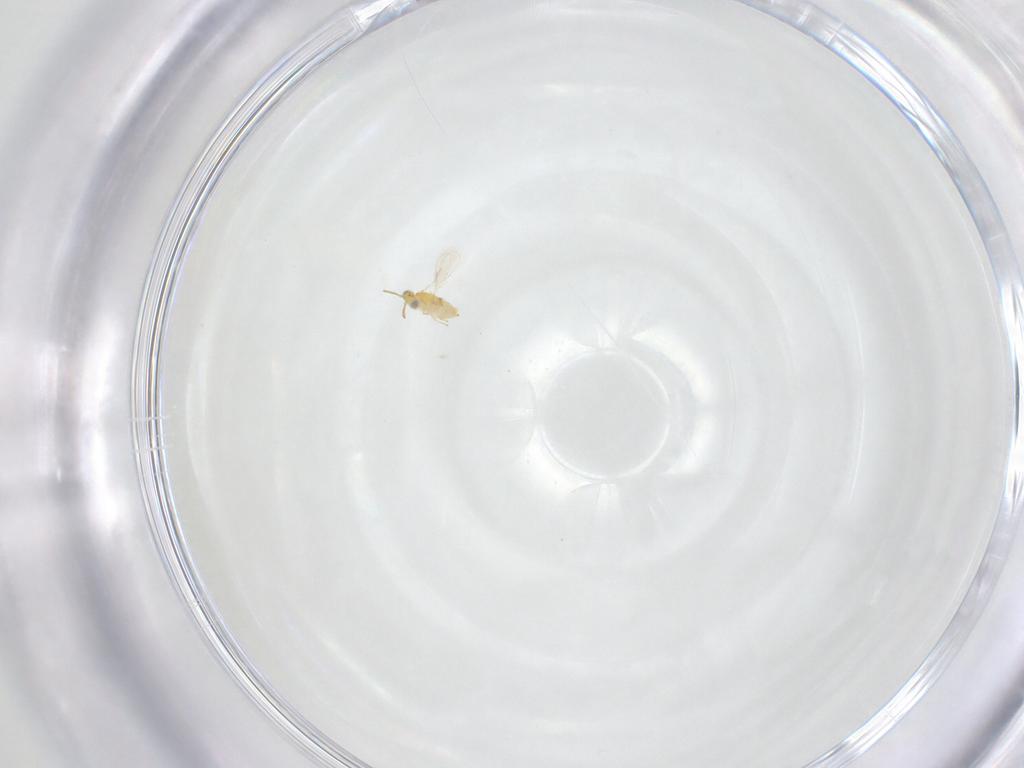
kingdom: Animalia
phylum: Arthropoda
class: Insecta
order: Hymenoptera
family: Aphelinidae
